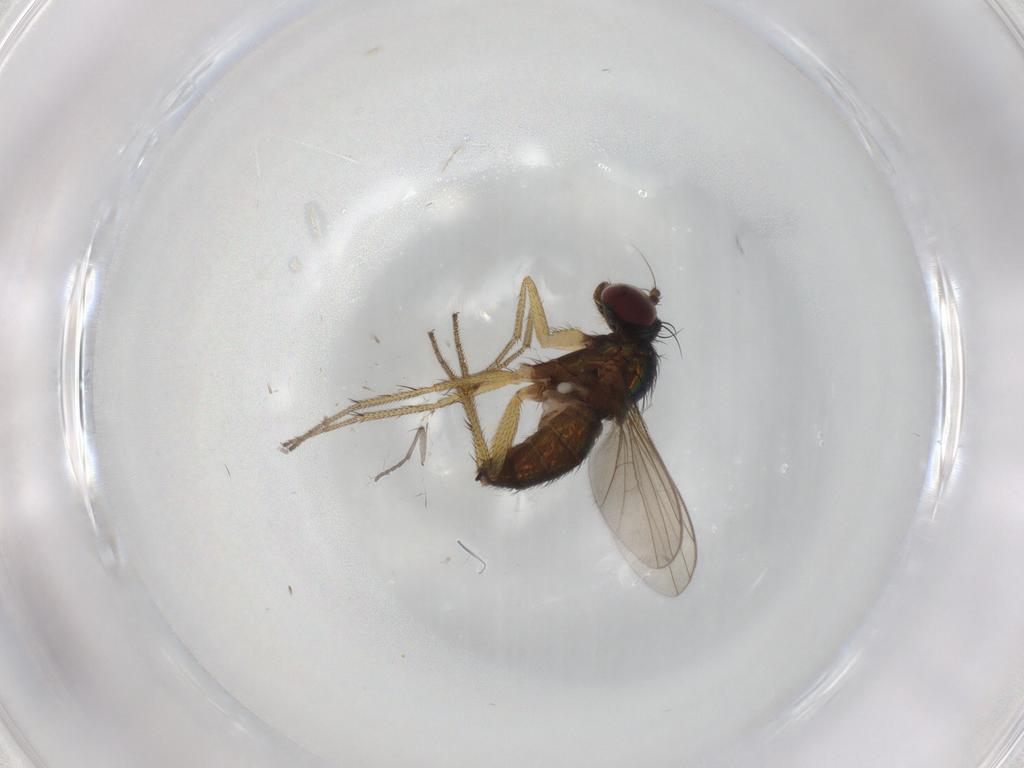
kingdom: Animalia
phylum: Arthropoda
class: Insecta
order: Diptera
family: Sciaridae
